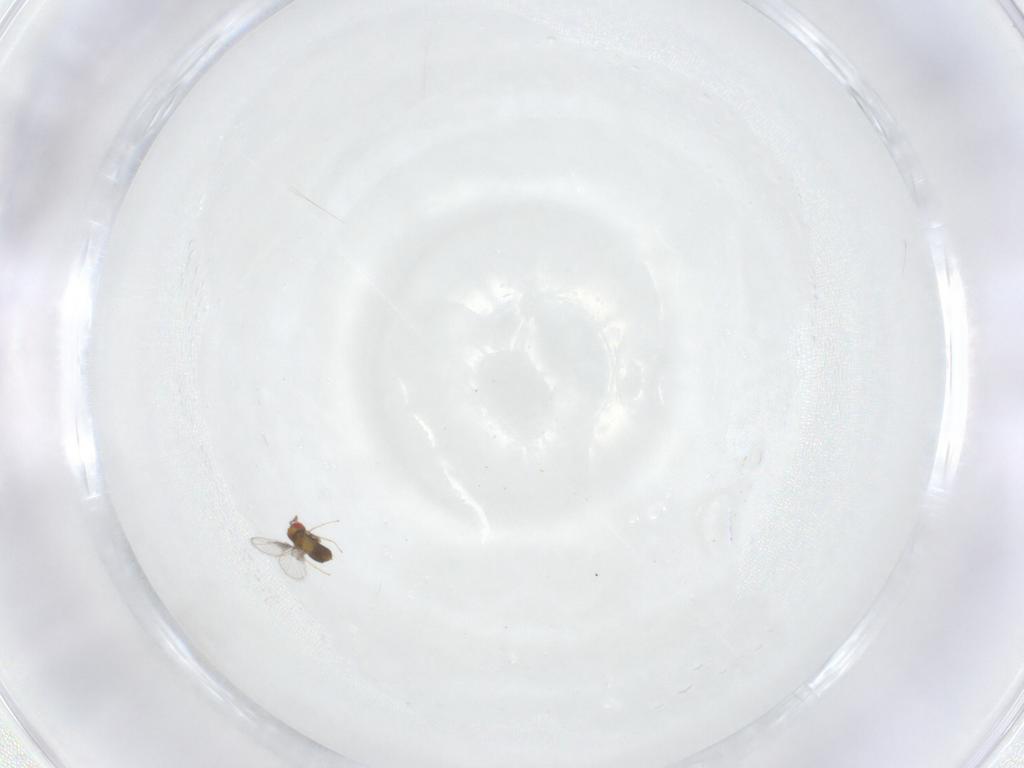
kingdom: Animalia
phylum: Arthropoda
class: Insecta
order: Hymenoptera
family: Trichogrammatidae
